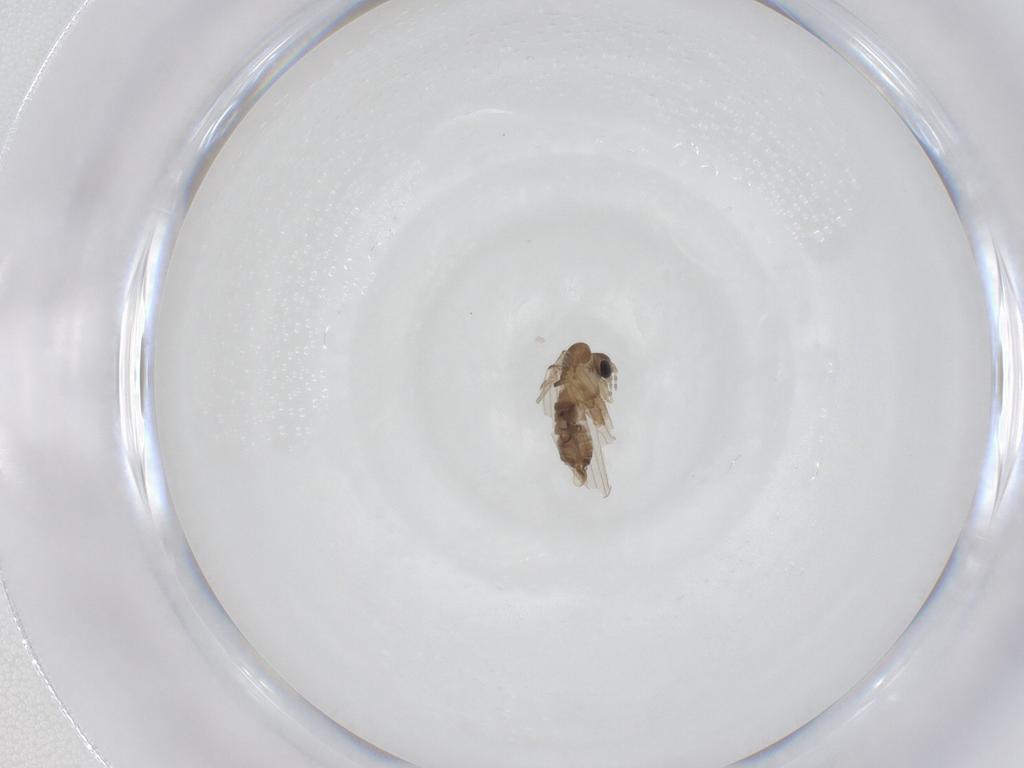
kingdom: Animalia
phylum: Arthropoda
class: Insecta
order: Diptera
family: Psychodidae
